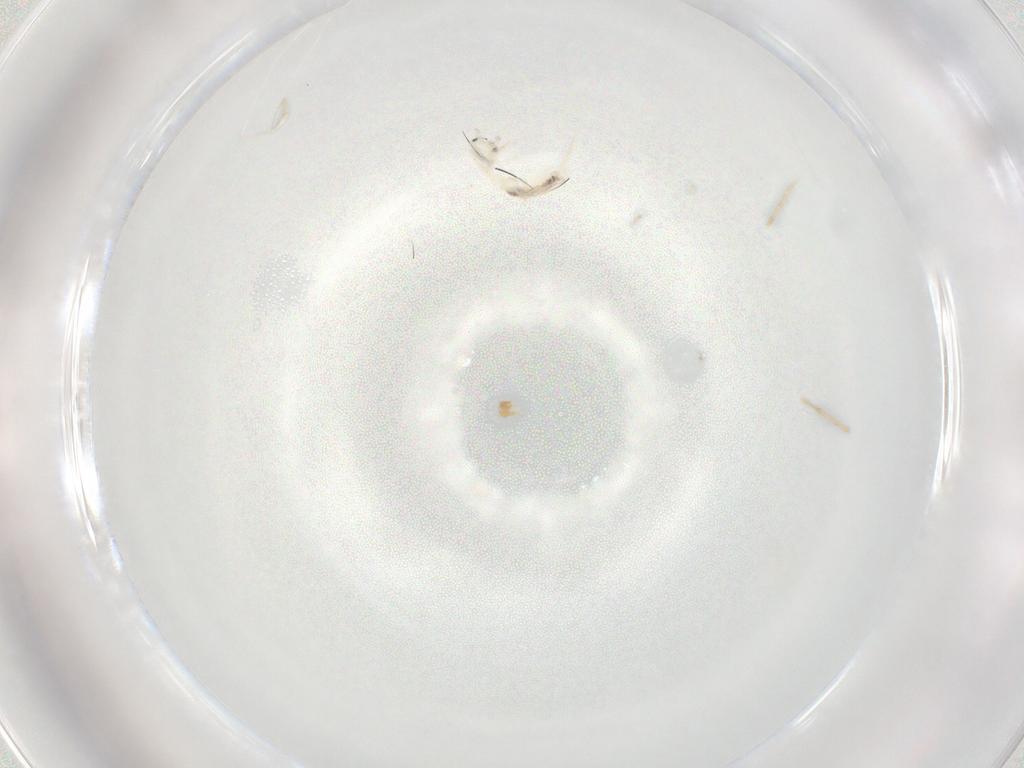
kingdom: Animalia
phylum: Arthropoda
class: Collembola
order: Entomobryomorpha
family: Entomobryidae
